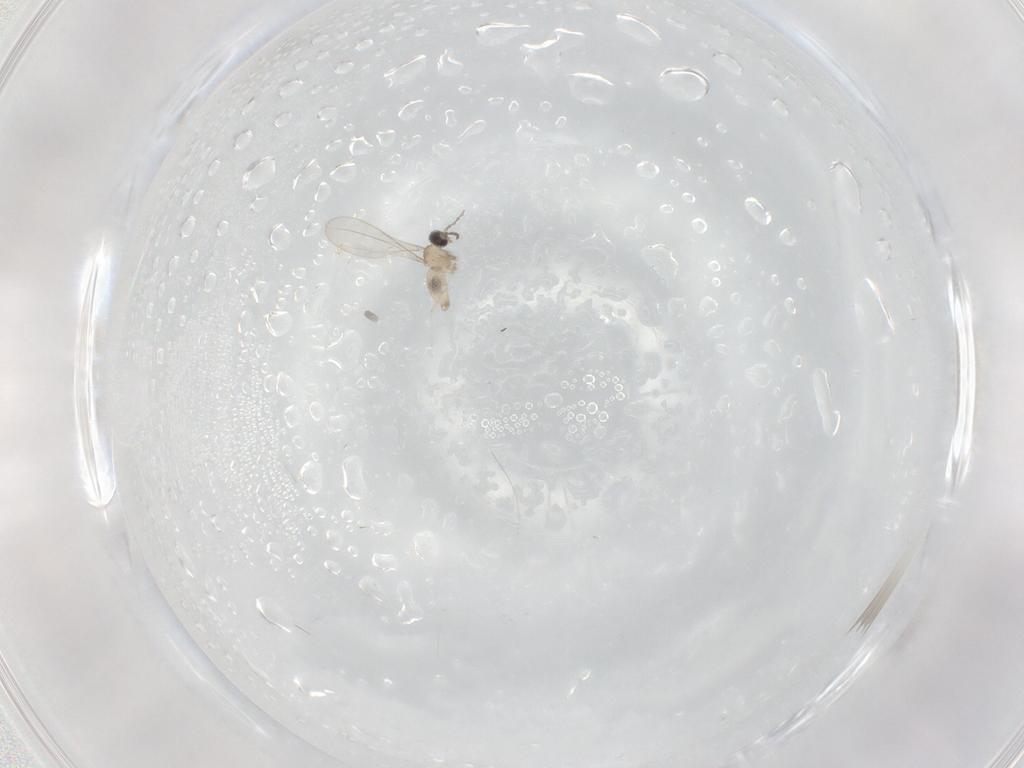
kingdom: Animalia
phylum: Arthropoda
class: Insecta
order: Diptera
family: Cecidomyiidae
